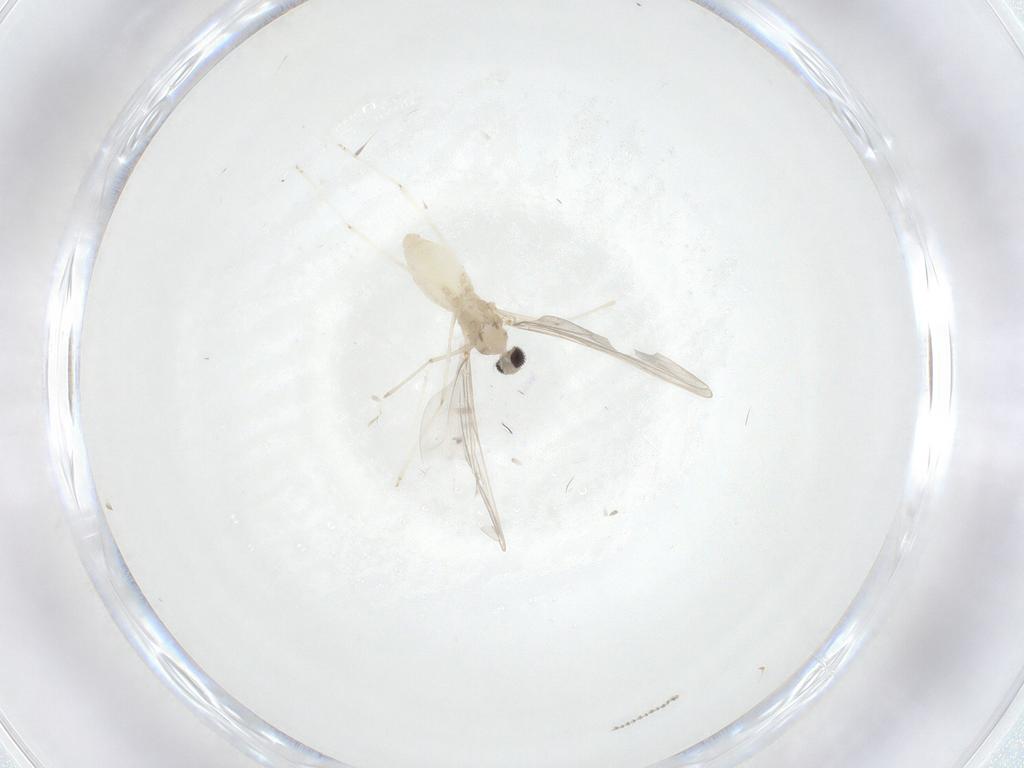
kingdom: Animalia
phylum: Arthropoda
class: Insecta
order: Diptera
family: Cecidomyiidae
